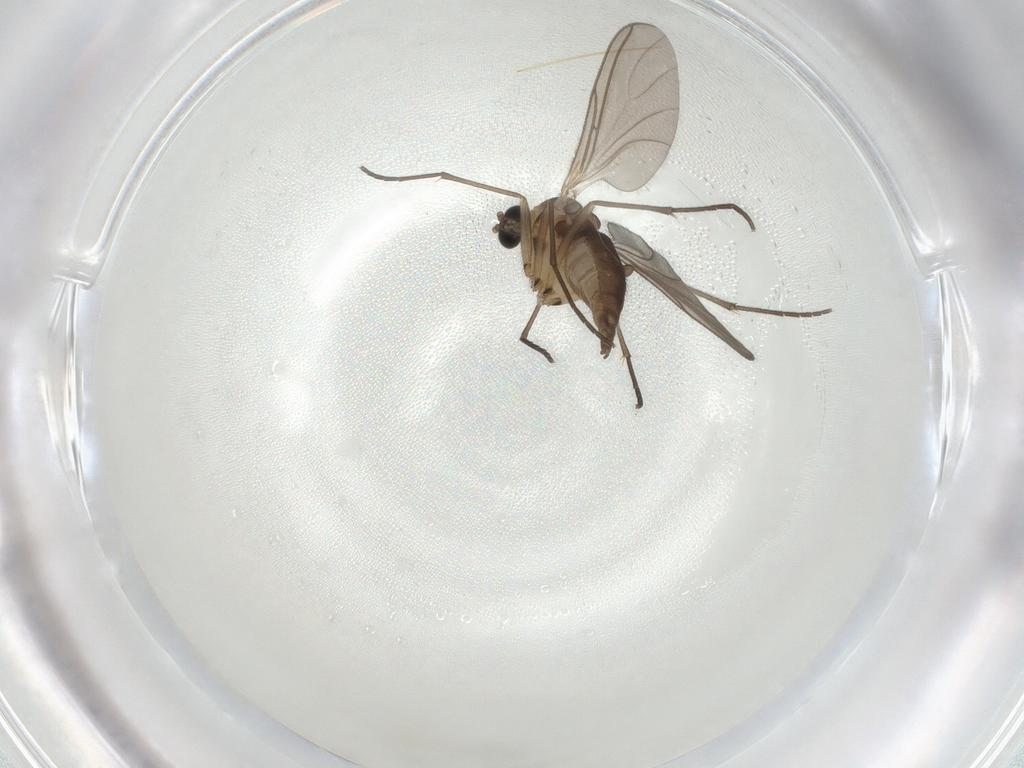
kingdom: Animalia
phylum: Arthropoda
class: Insecta
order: Diptera
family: Sciaridae
